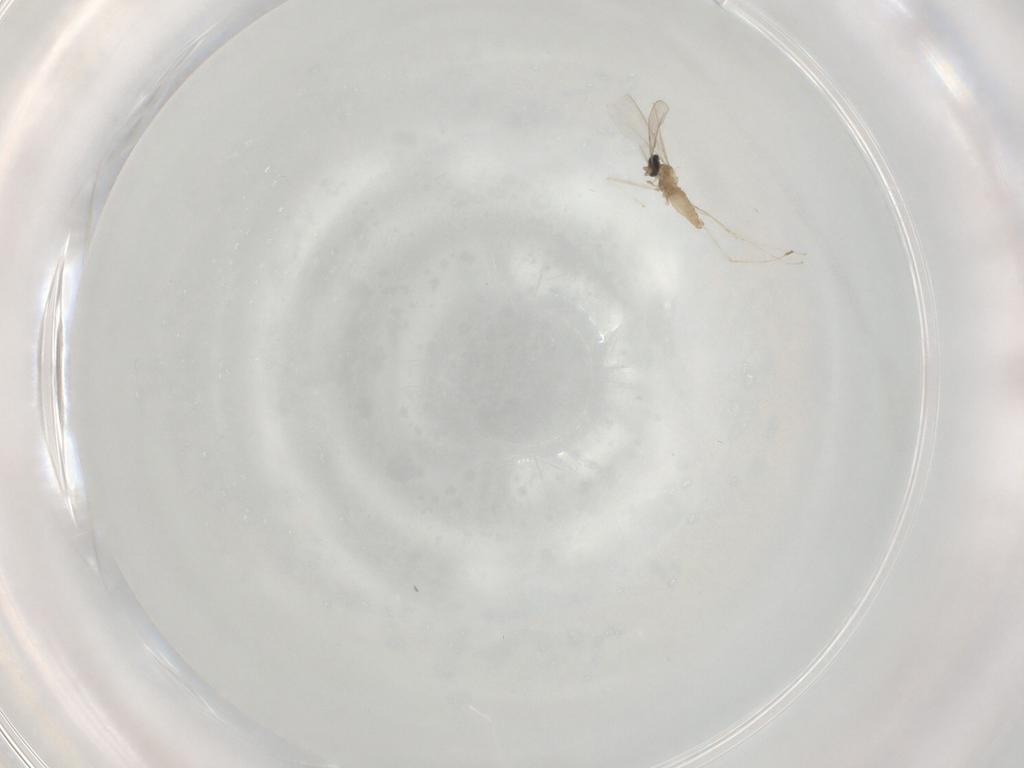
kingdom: Animalia
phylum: Arthropoda
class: Insecta
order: Diptera
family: Cecidomyiidae
